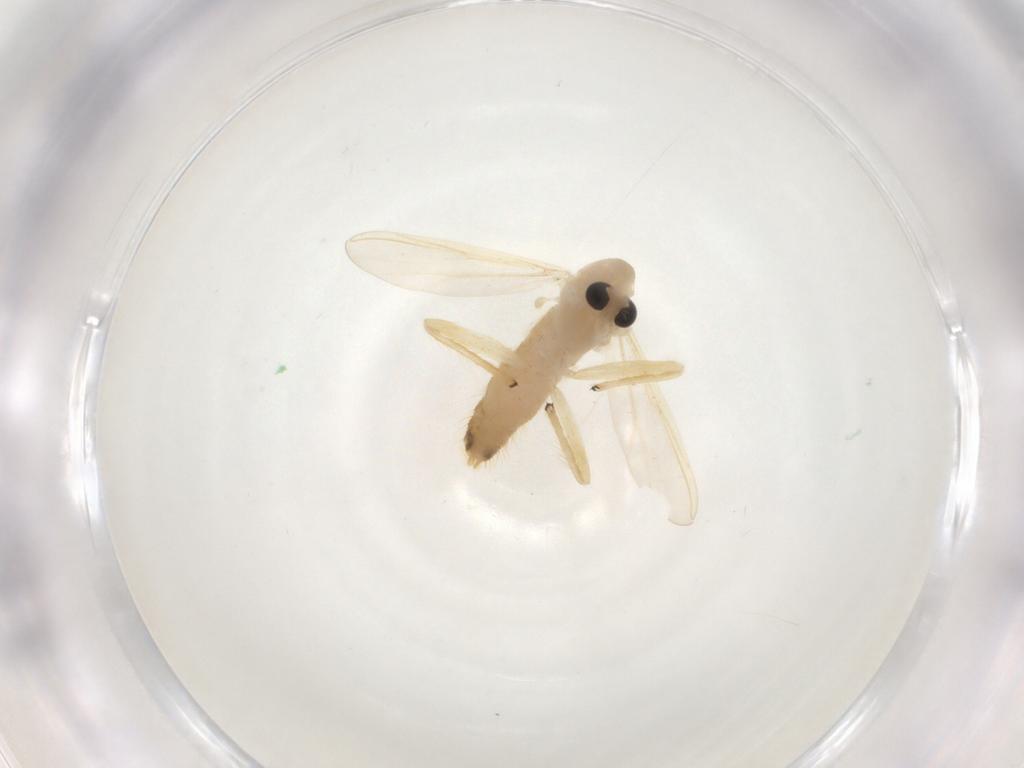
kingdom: Animalia
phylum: Arthropoda
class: Insecta
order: Diptera
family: Chironomidae
